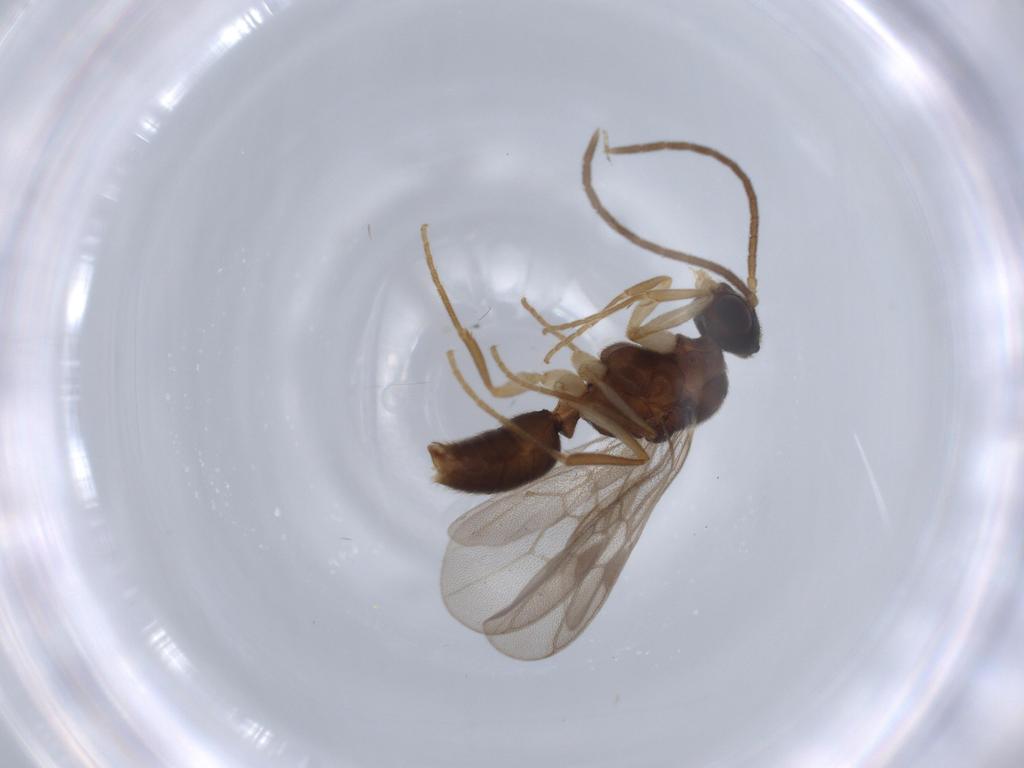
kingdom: Animalia
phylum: Arthropoda
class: Insecta
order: Hymenoptera
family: Formicidae
